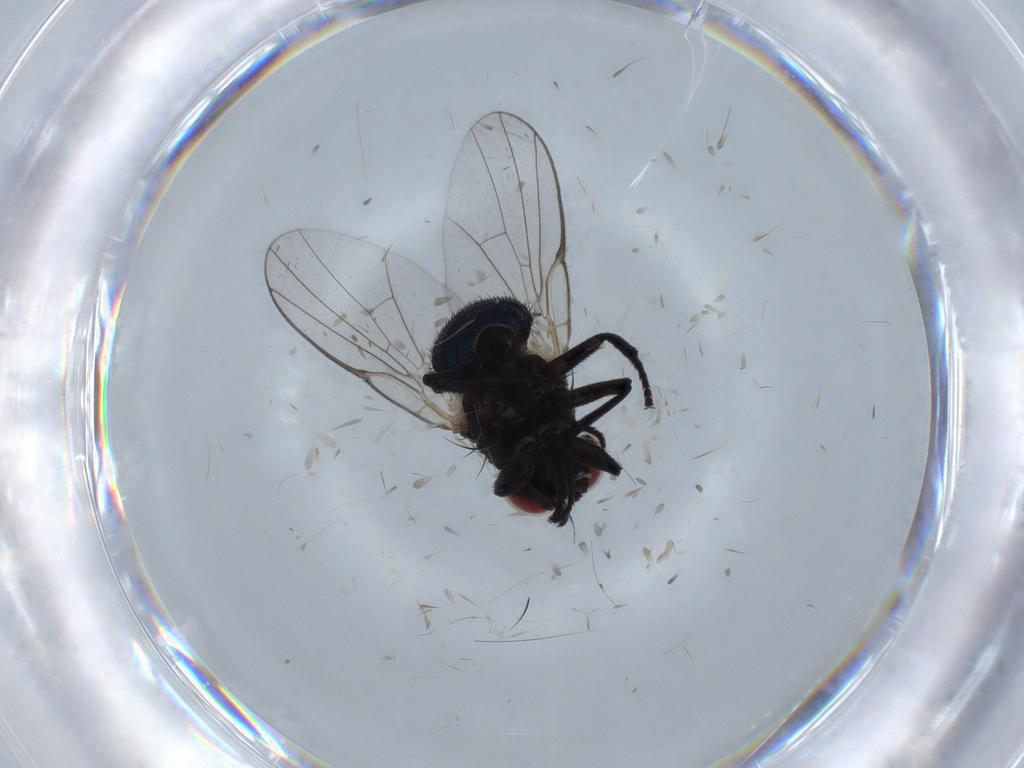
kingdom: Animalia
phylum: Arthropoda
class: Insecta
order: Diptera
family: Agromyzidae
